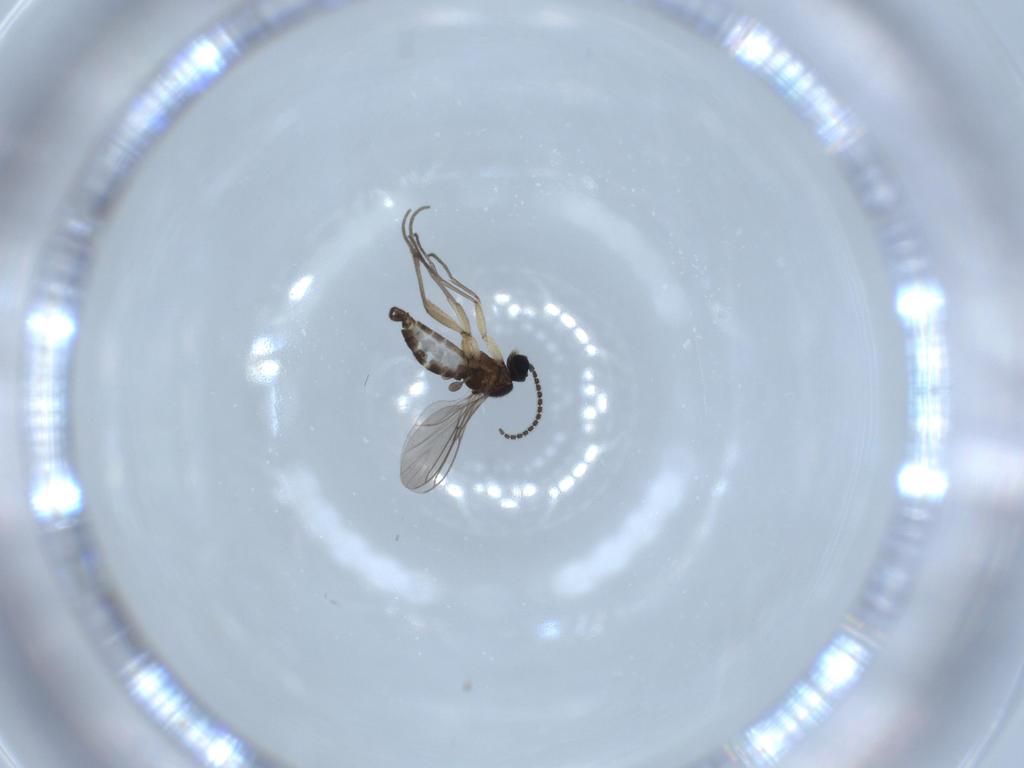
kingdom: Animalia
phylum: Arthropoda
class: Insecta
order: Diptera
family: Sciaridae
